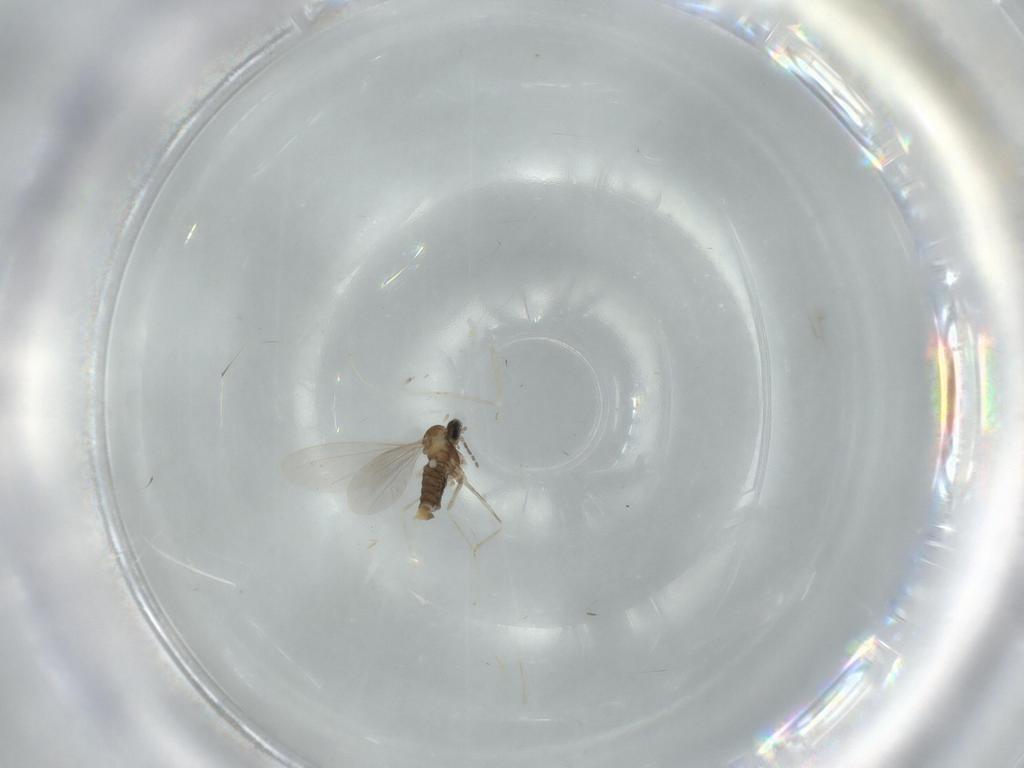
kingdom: Animalia
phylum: Arthropoda
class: Insecta
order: Diptera
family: Cecidomyiidae
